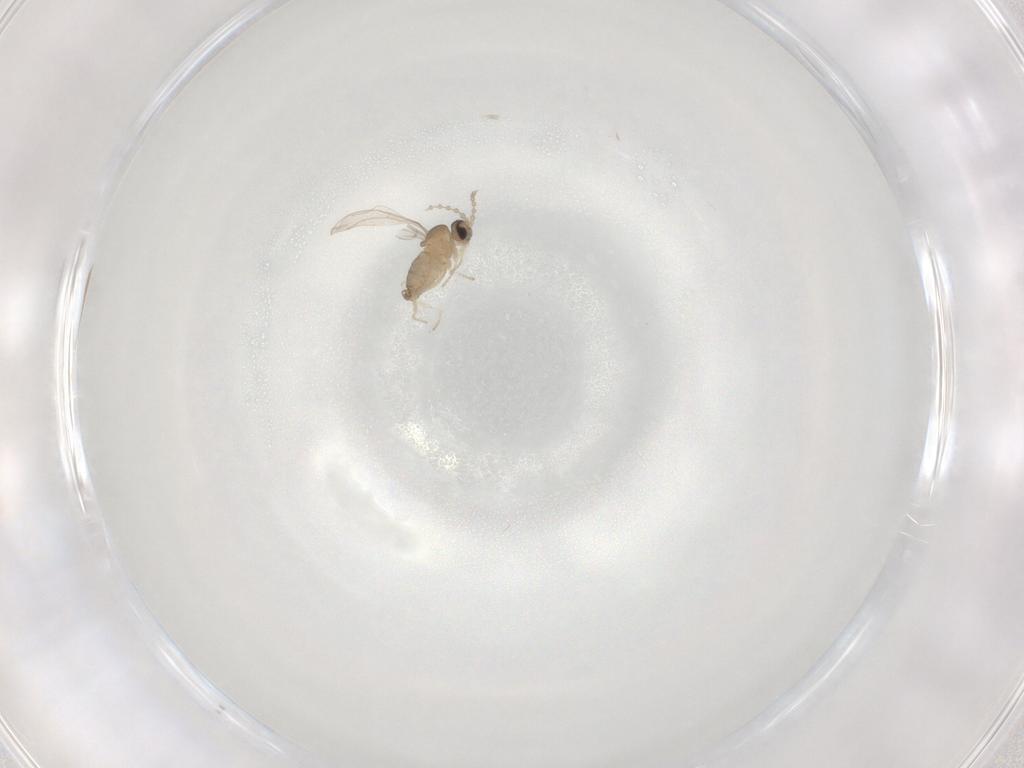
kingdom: Animalia
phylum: Arthropoda
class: Insecta
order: Diptera
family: Cecidomyiidae
